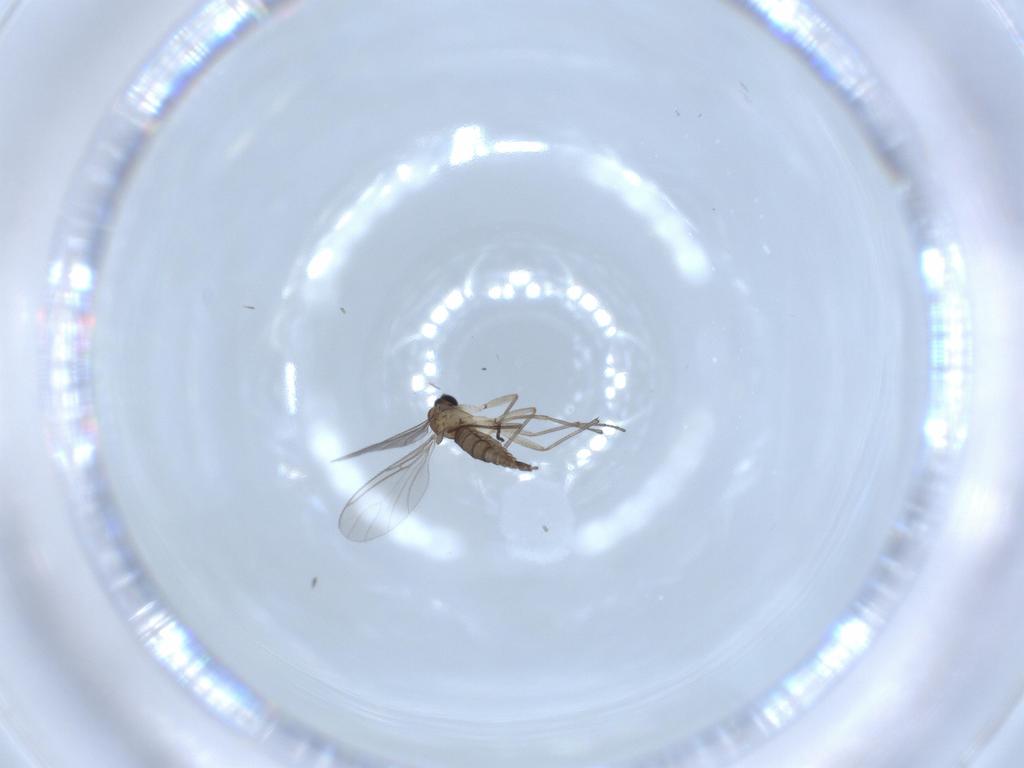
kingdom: Animalia
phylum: Arthropoda
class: Insecta
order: Diptera
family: Sciaridae
